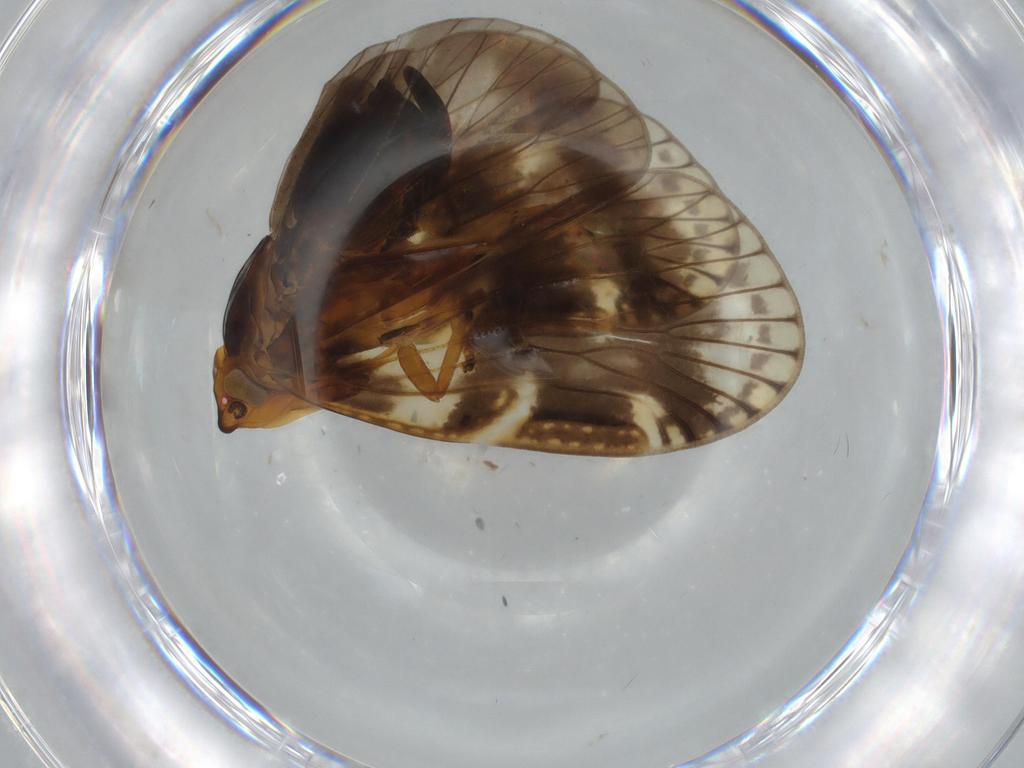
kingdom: Animalia
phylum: Arthropoda
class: Insecta
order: Hemiptera
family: Cixiidae
